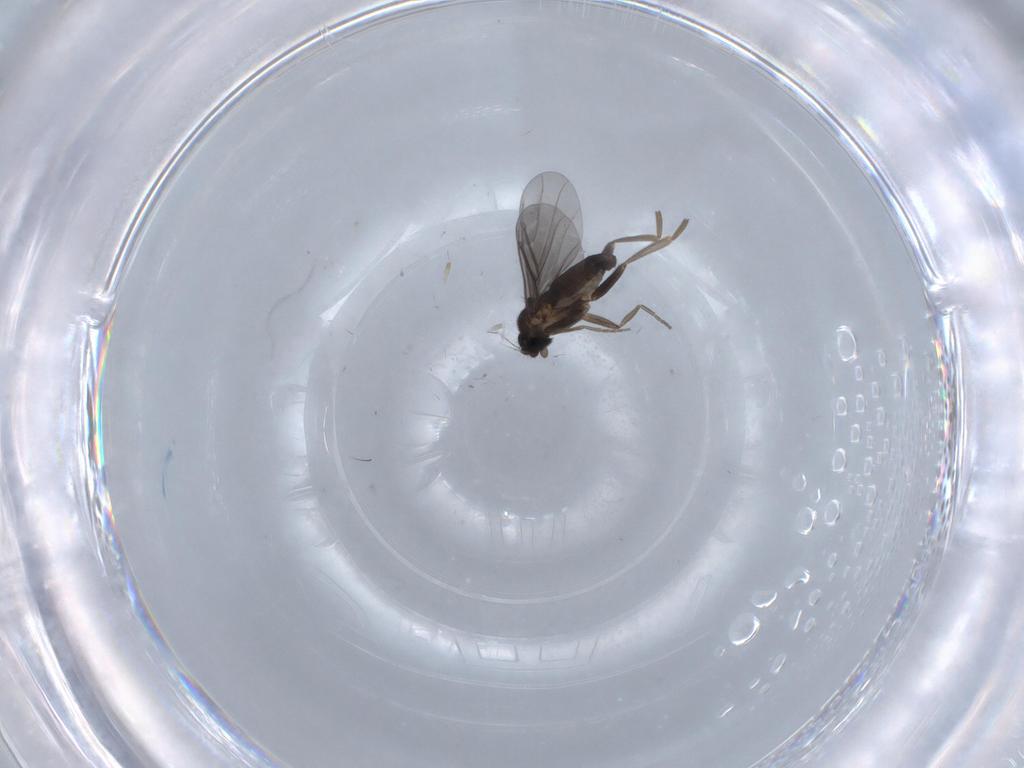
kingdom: Animalia
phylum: Arthropoda
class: Insecta
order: Diptera
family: Phoridae
